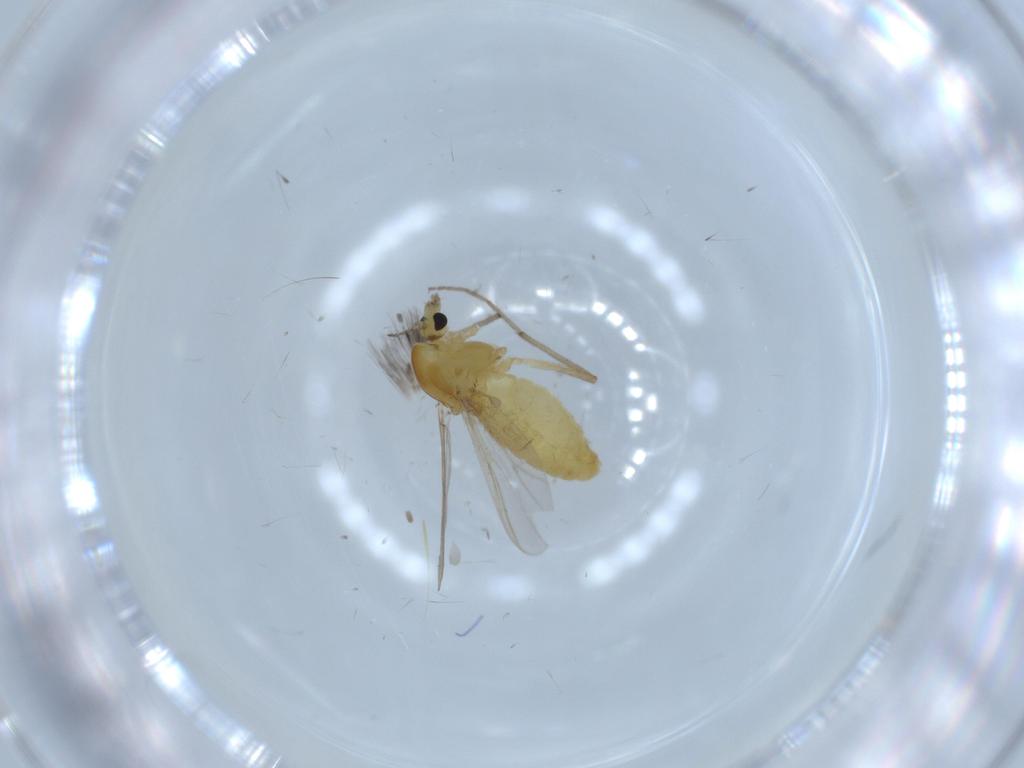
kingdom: Animalia
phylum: Arthropoda
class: Insecta
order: Diptera
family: Chironomidae
